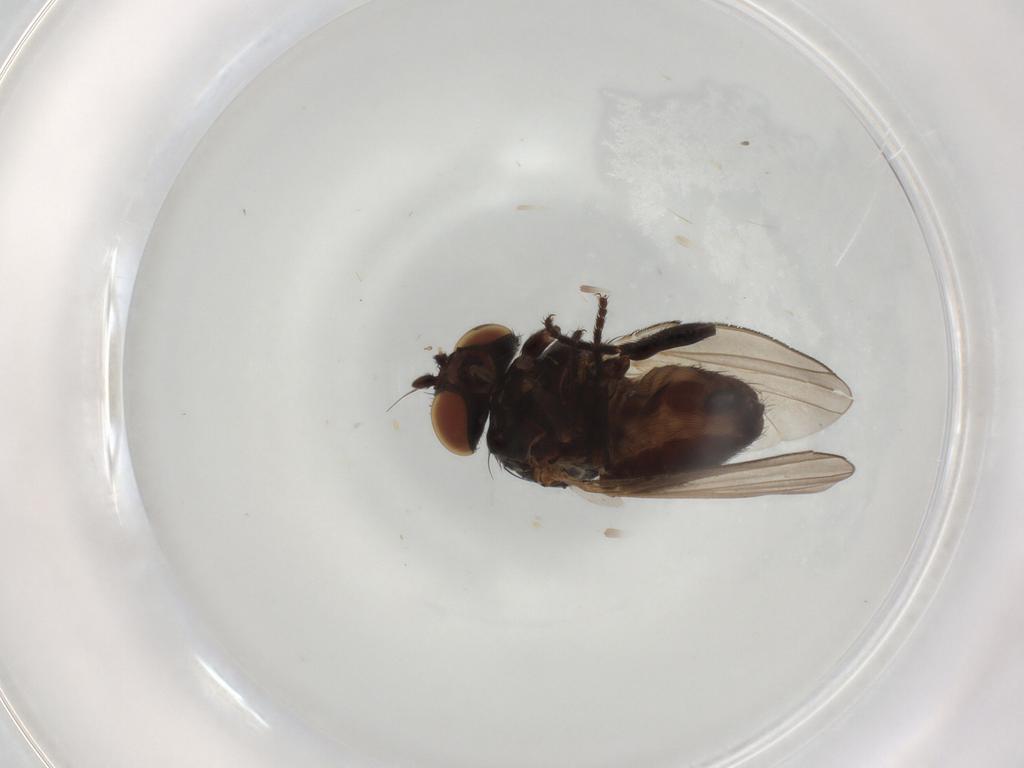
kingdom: Animalia
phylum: Arthropoda
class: Insecta
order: Diptera
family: Milichiidae
